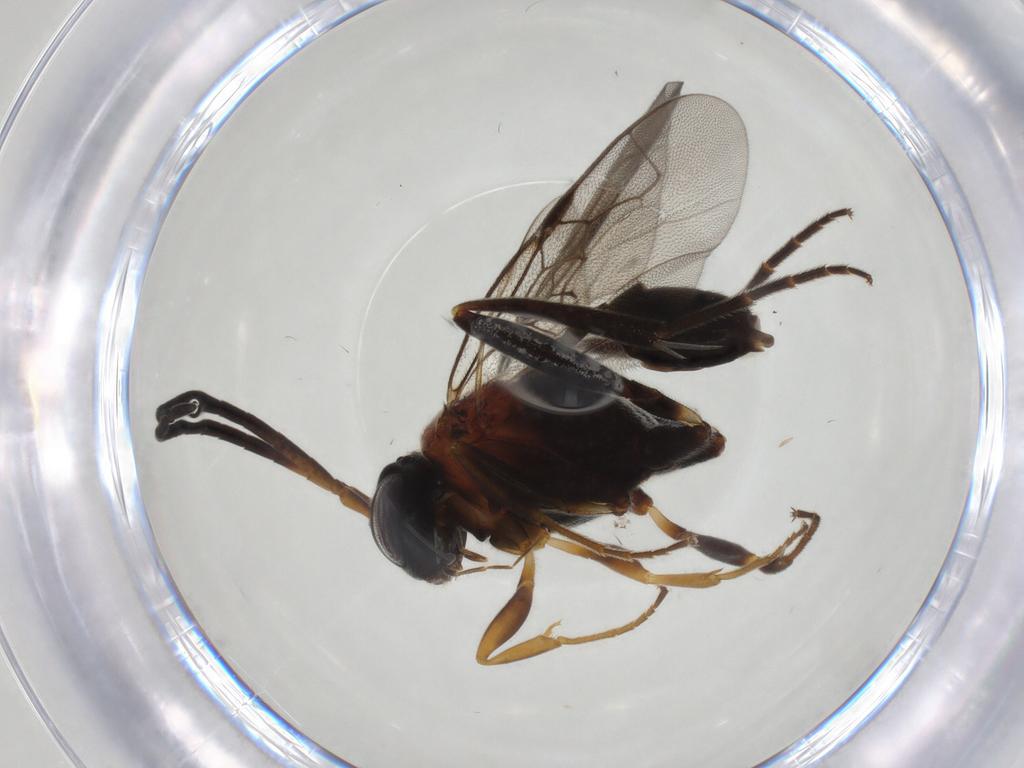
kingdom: Animalia
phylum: Arthropoda
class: Insecta
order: Hymenoptera
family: Evaniidae
